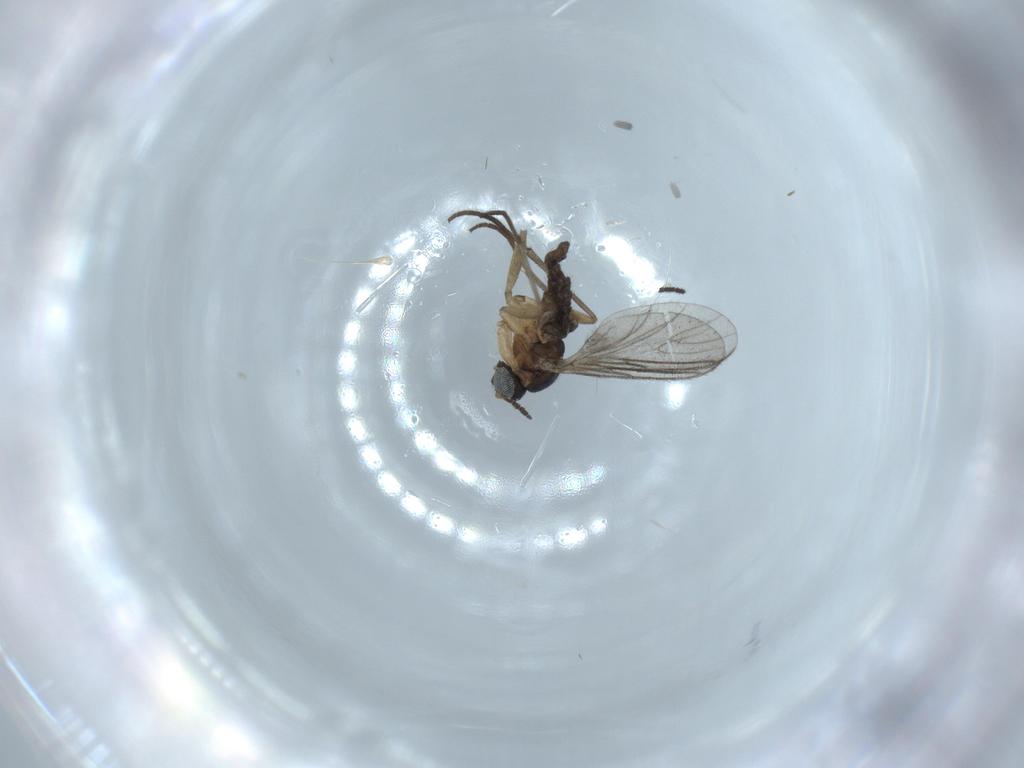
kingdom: Animalia
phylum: Arthropoda
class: Insecta
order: Diptera
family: Sciaridae
